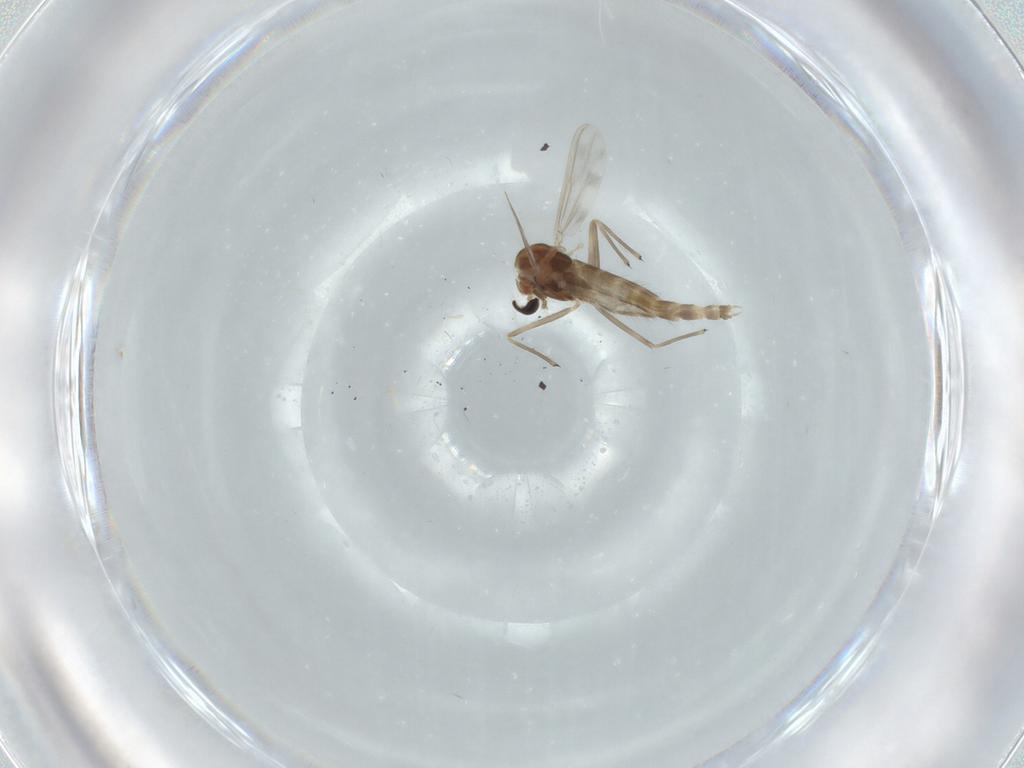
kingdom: Animalia
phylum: Arthropoda
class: Insecta
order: Diptera
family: Chironomidae
